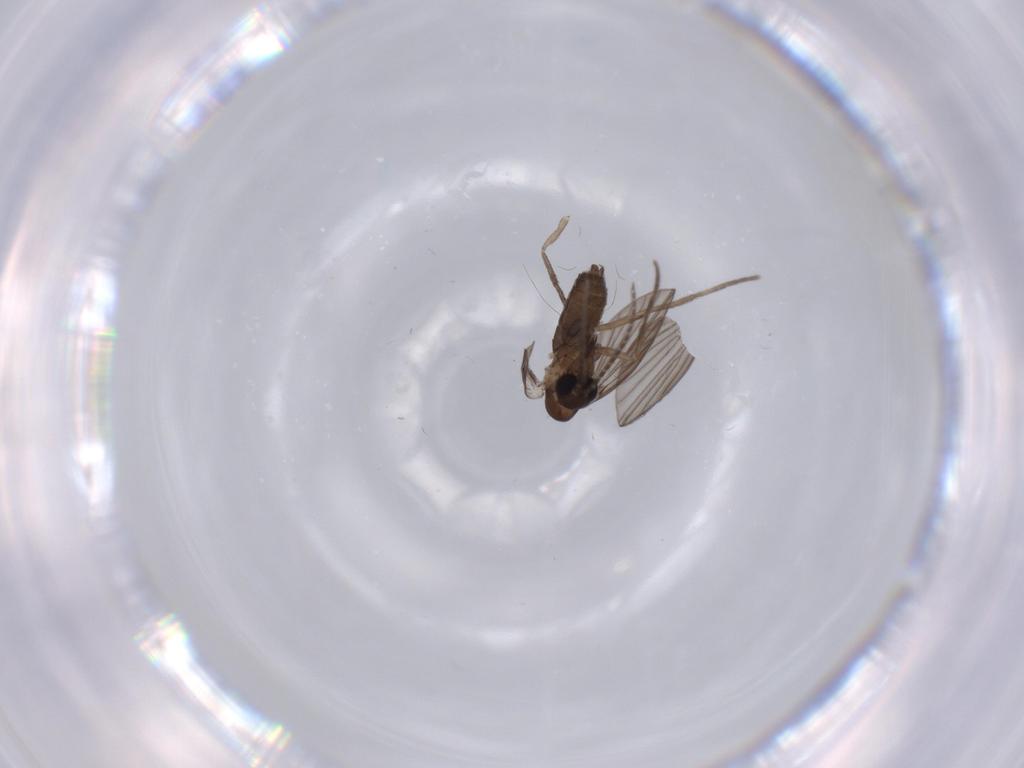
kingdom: Animalia
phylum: Arthropoda
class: Insecta
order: Diptera
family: Psychodidae
